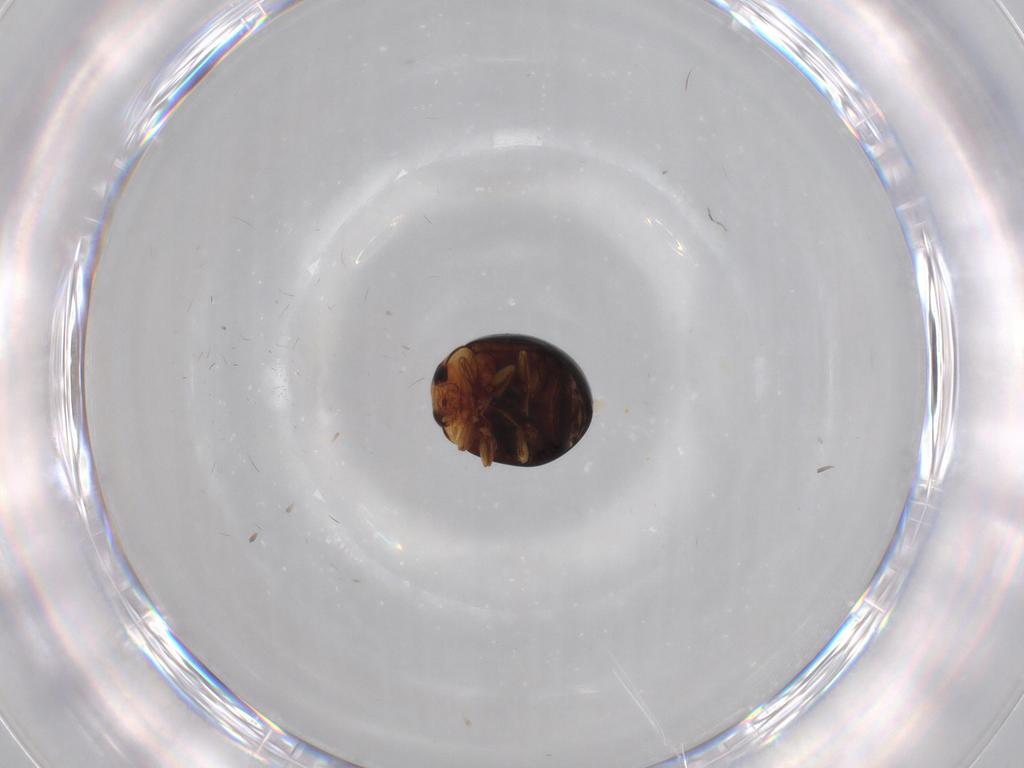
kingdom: Animalia
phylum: Arthropoda
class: Insecta
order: Coleoptera
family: Coccinellidae
